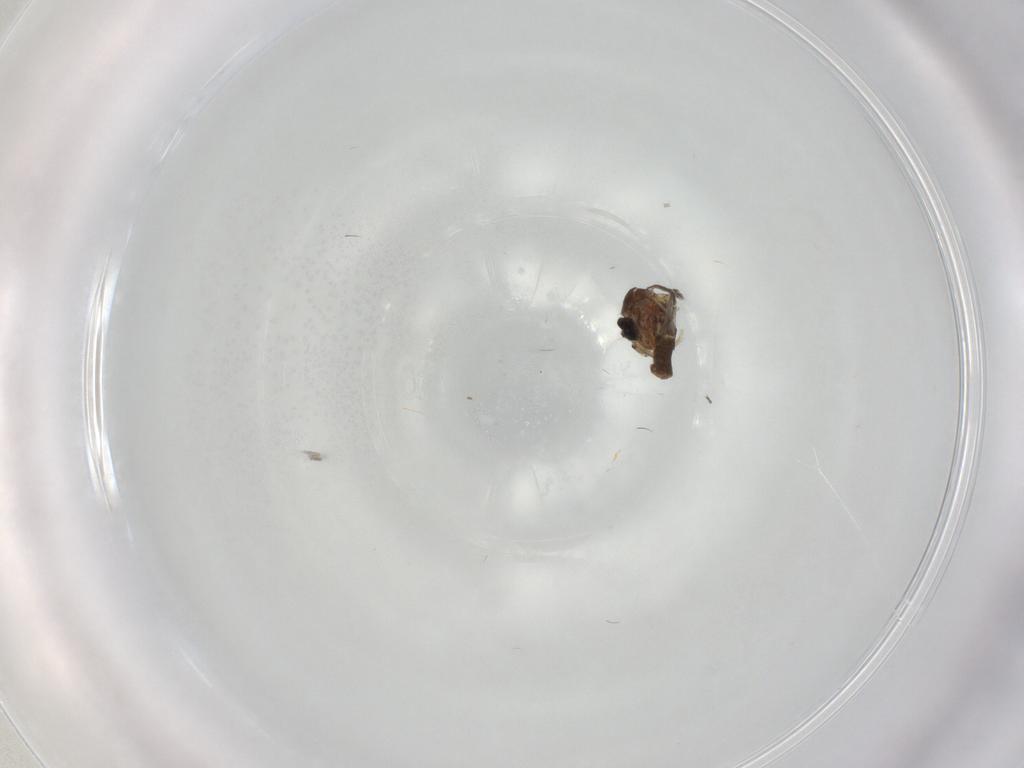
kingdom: Animalia
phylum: Arthropoda
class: Insecta
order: Diptera
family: Ceratopogonidae
